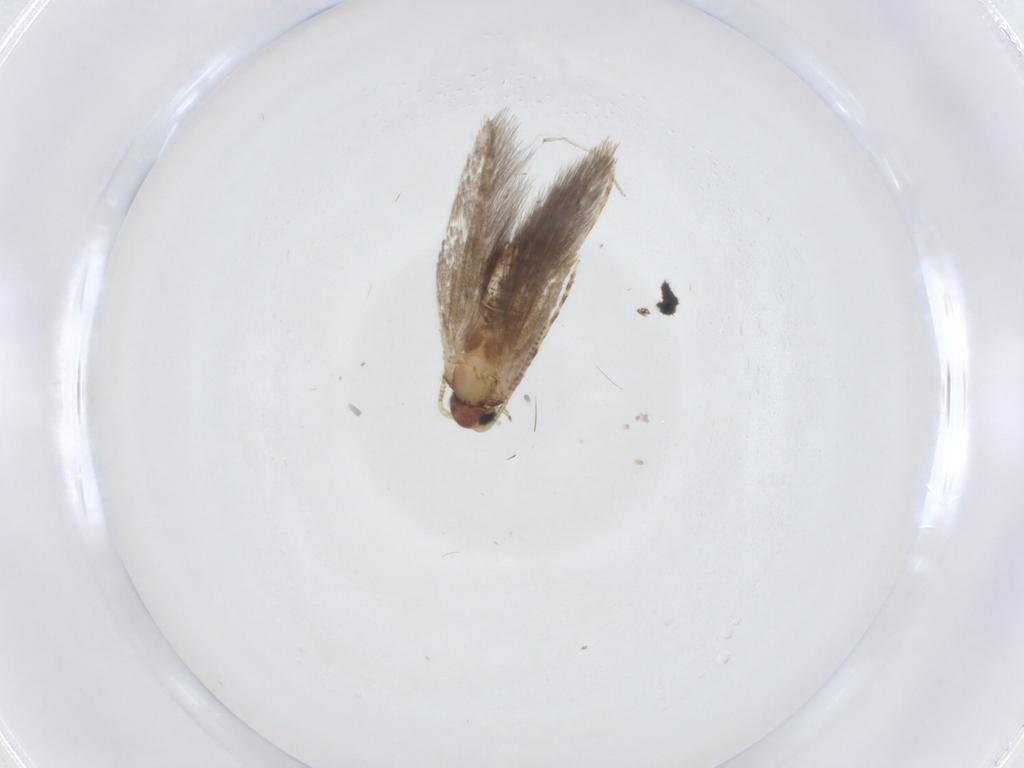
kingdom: Animalia
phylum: Arthropoda
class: Insecta
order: Lepidoptera
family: Meessiidae
